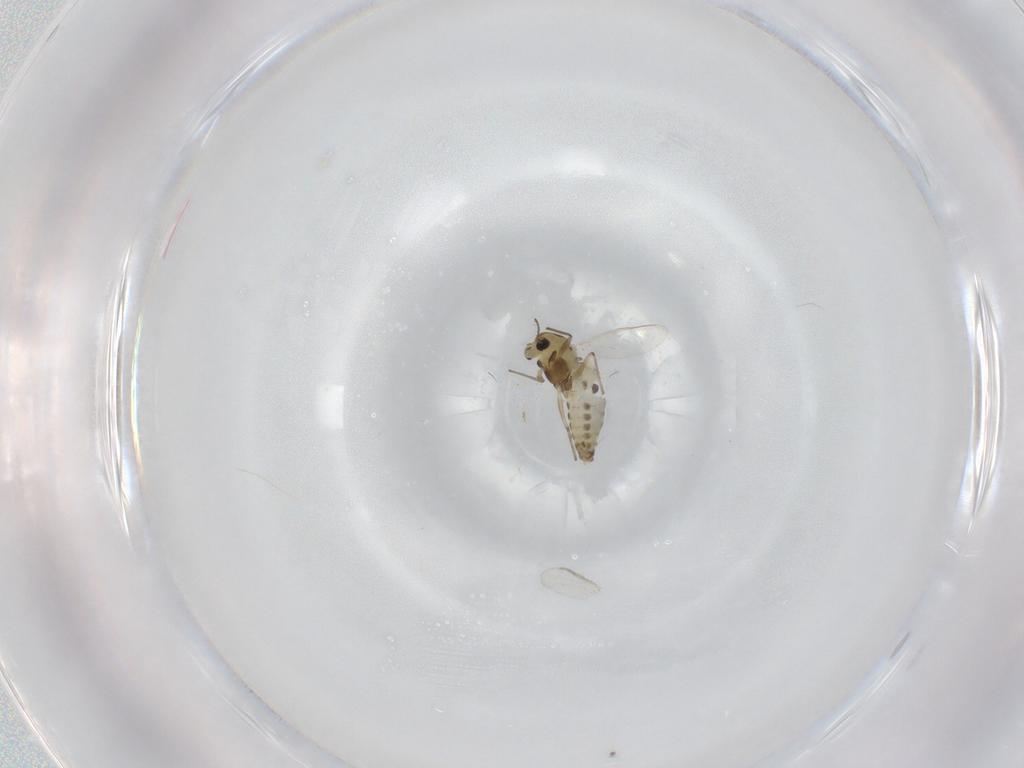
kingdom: Animalia
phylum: Arthropoda
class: Insecta
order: Diptera
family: Chironomidae
